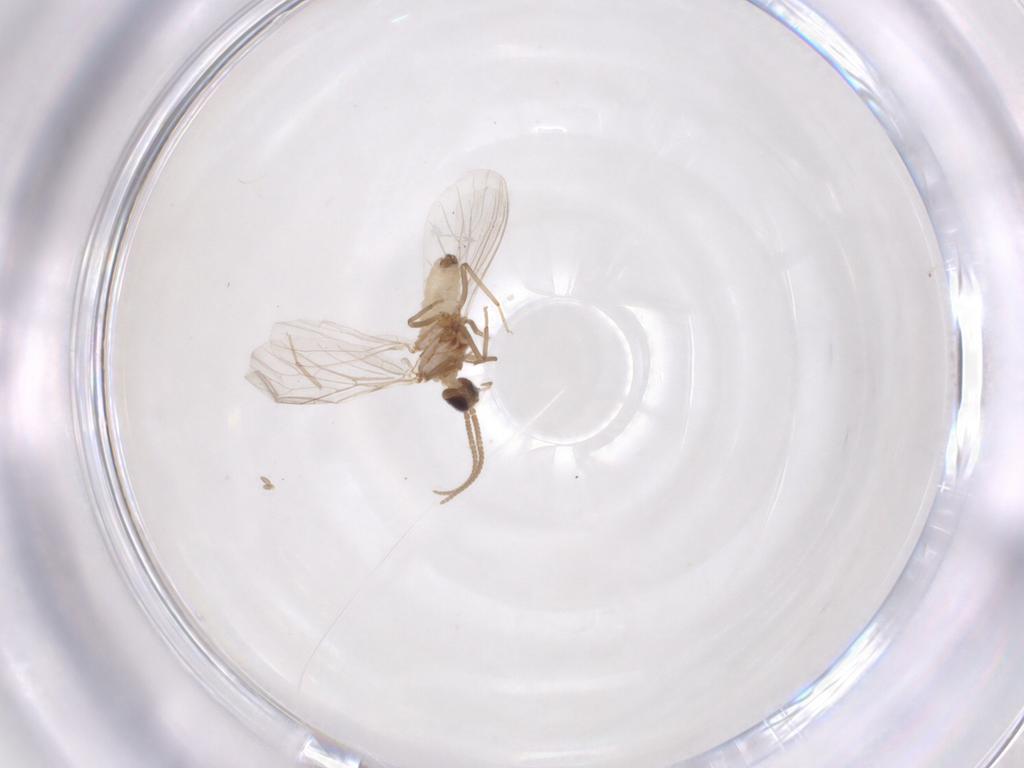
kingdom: Animalia
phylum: Arthropoda
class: Insecta
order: Neuroptera
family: Coniopterygidae
